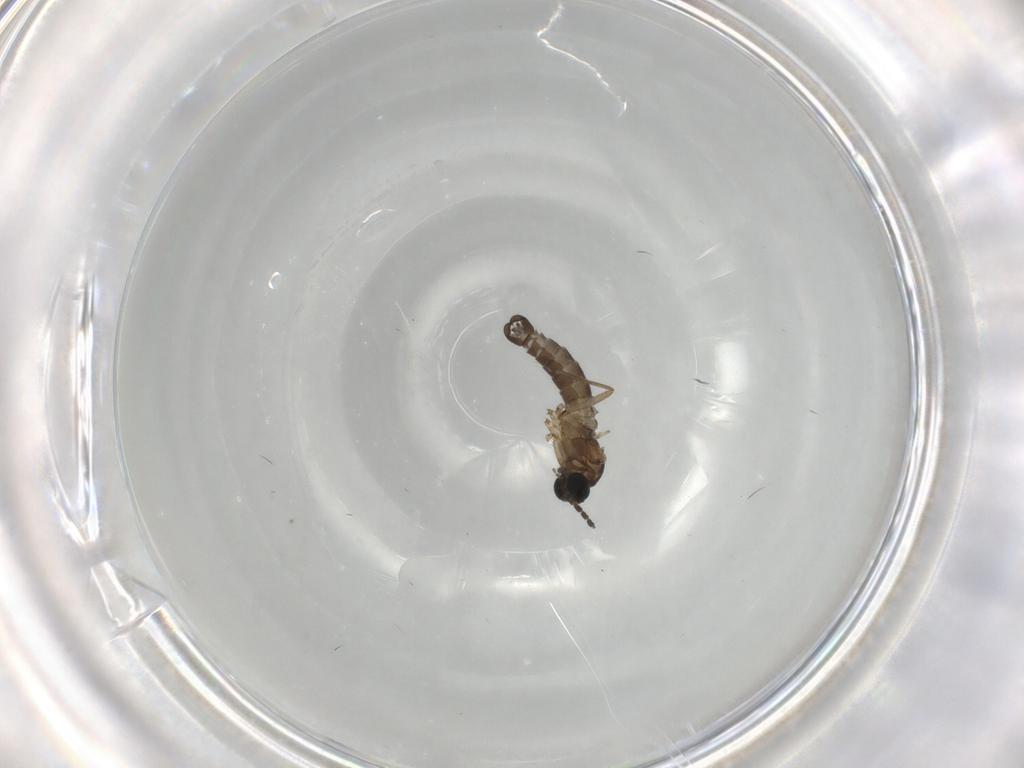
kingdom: Animalia
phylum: Arthropoda
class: Insecta
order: Diptera
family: Sciaridae
